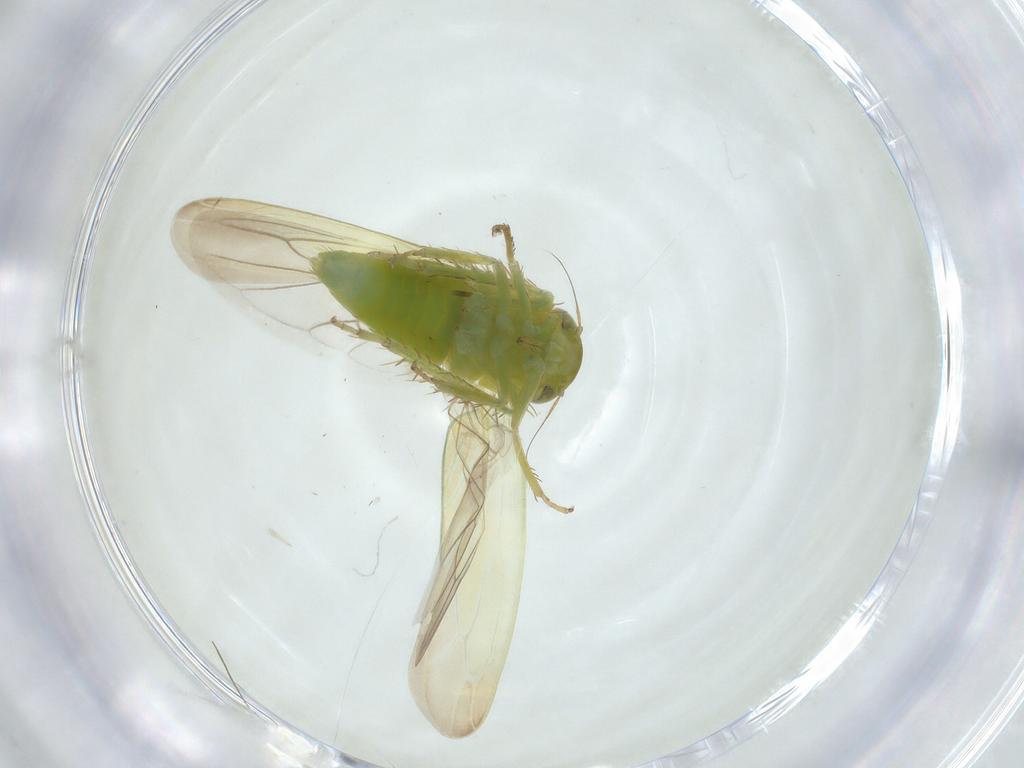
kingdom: Animalia
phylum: Arthropoda
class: Insecta
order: Hemiptera
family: Cicadellidae
